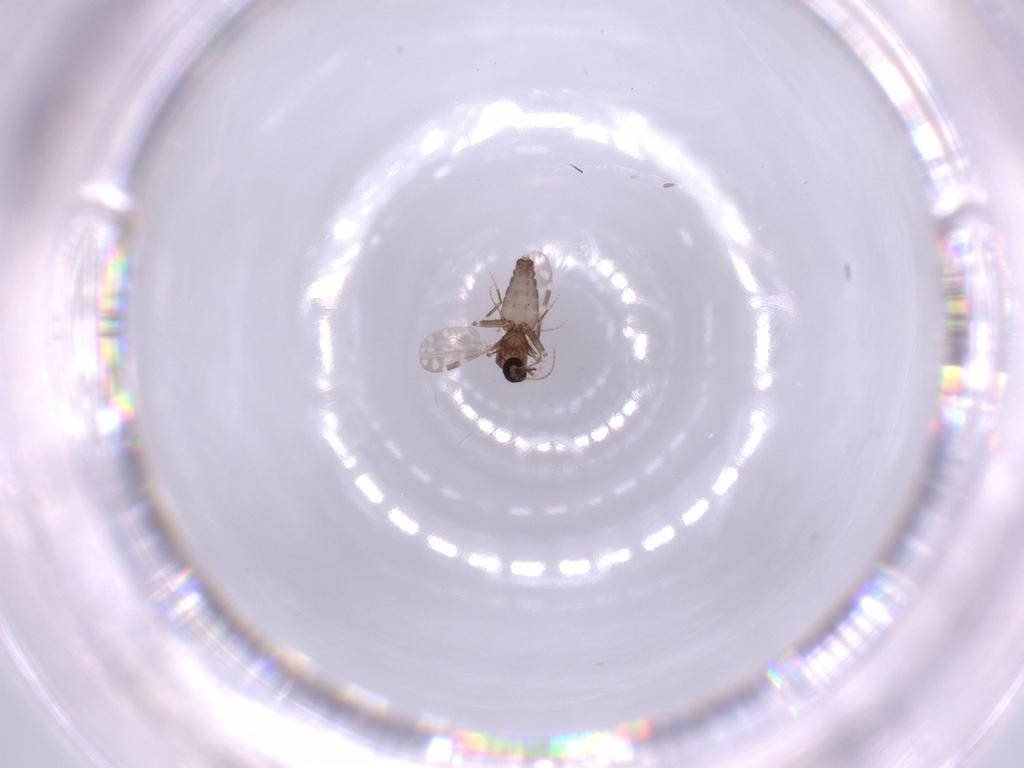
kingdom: Animalia
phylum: Arthropoda
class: Insecta
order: Diptera
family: Ceratopogonidae
